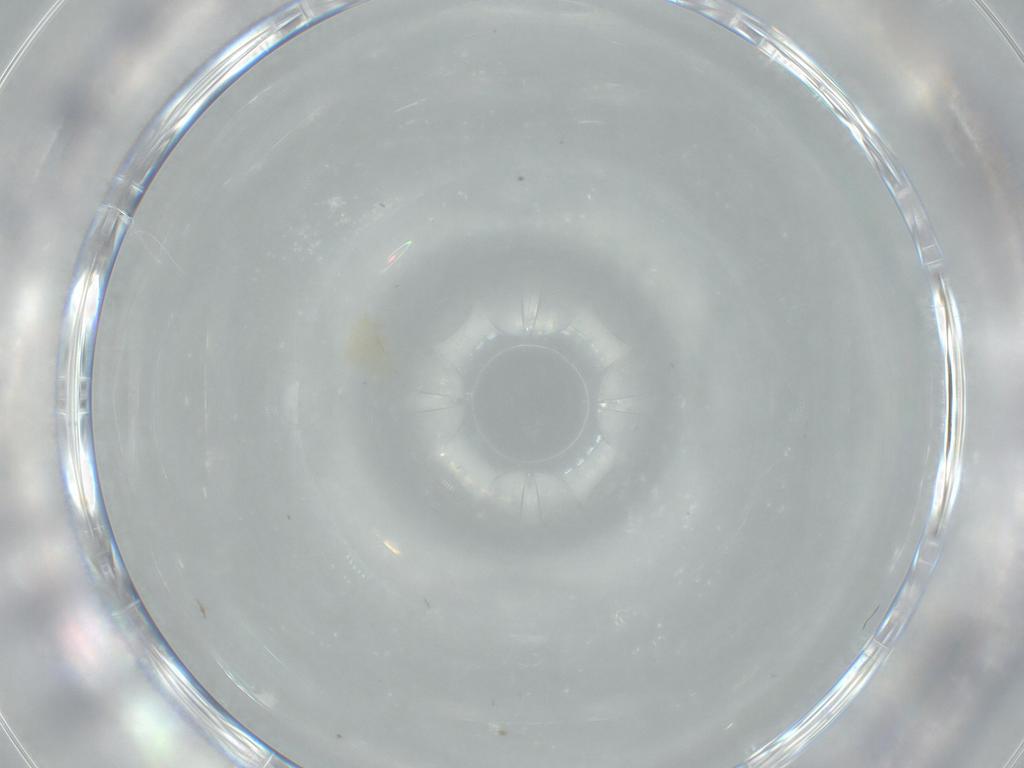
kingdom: Animalia
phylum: Arthropoda
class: Insecta
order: Diptera
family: Cecidomyiidae
